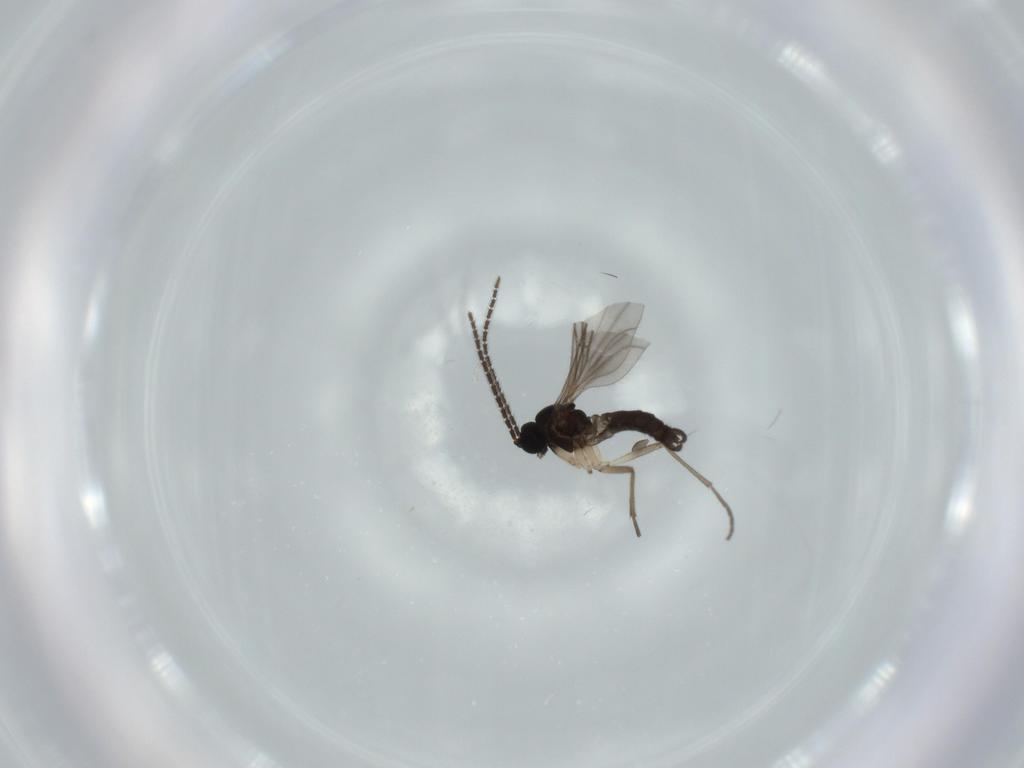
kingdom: Animalia
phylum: Arthropoda
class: Insecta
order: Diptera
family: Sciaridae
